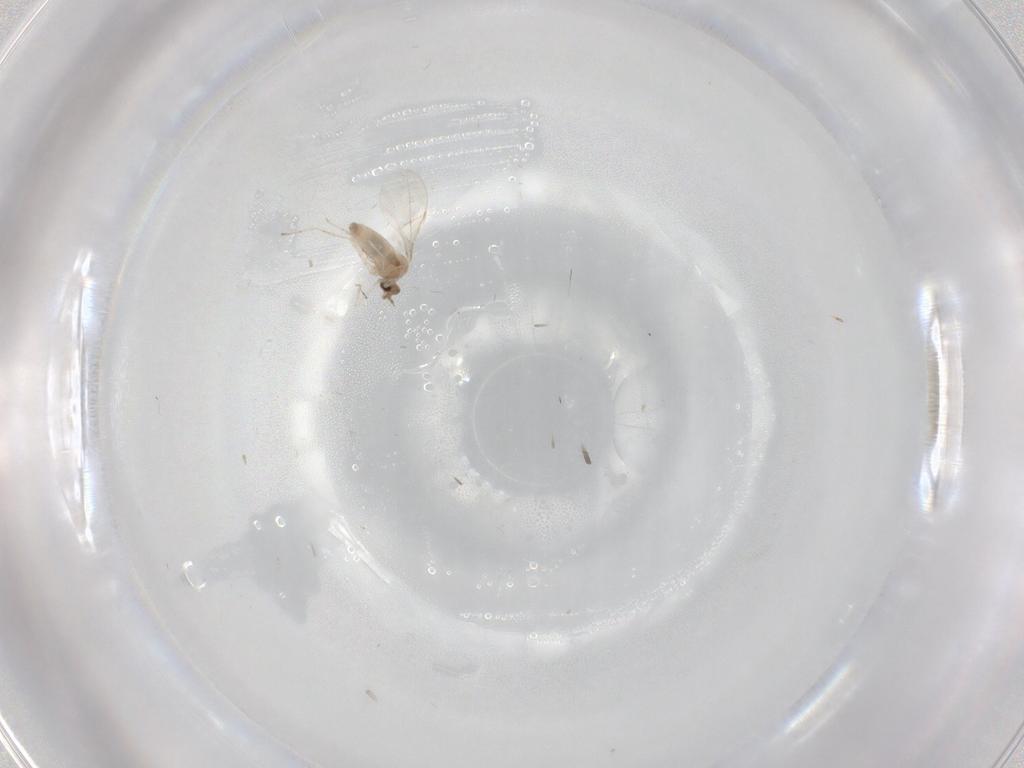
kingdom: Animalia
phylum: Arthropoda
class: Insecta
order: Diptera
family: Chironomidae
